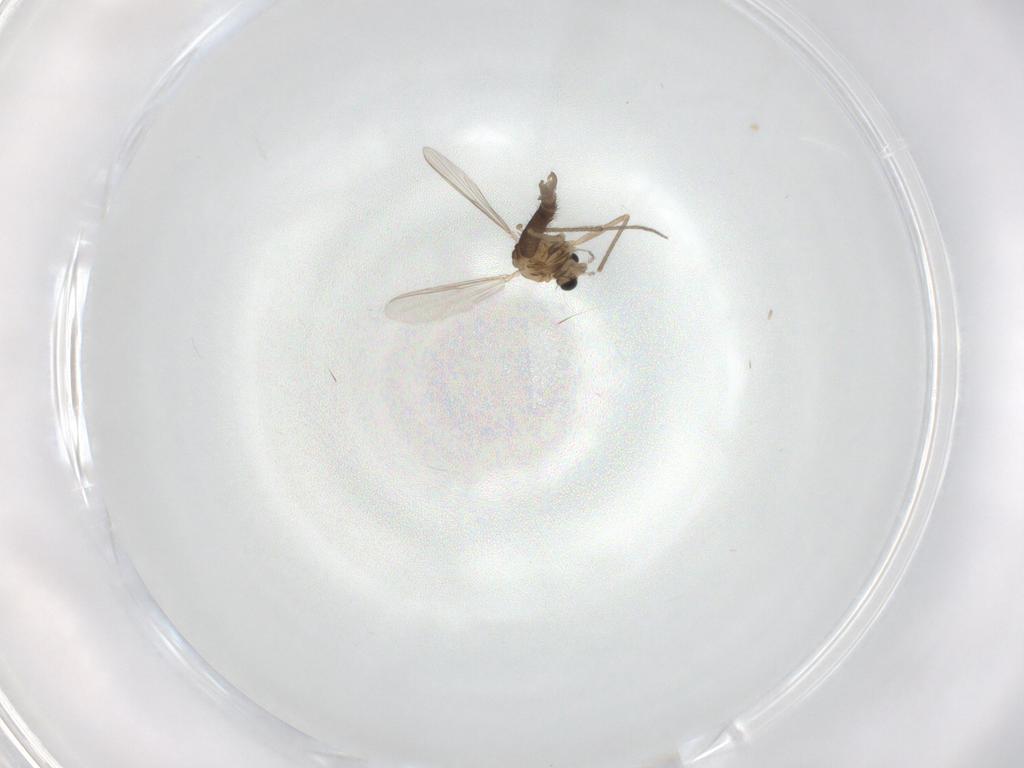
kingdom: Animalia
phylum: Arthropoda
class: Insecta
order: Diptera
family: Chironomidae
